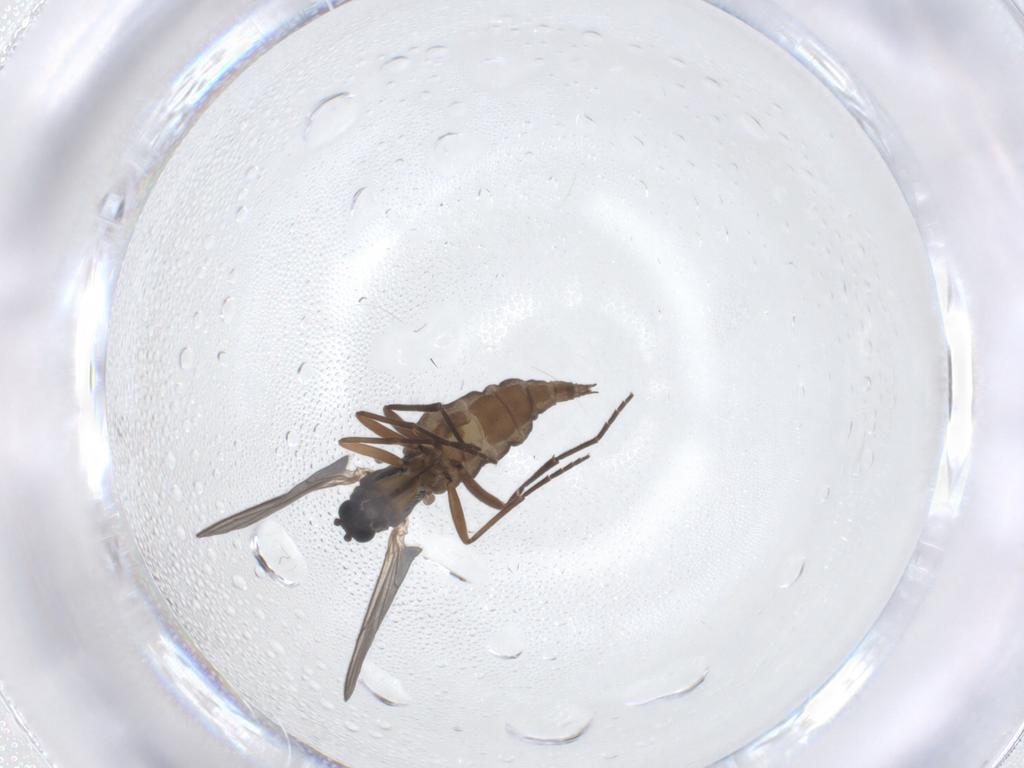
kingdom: Animalia
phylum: Arthropoda
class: Insecta
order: Diptera
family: Sciaridae
